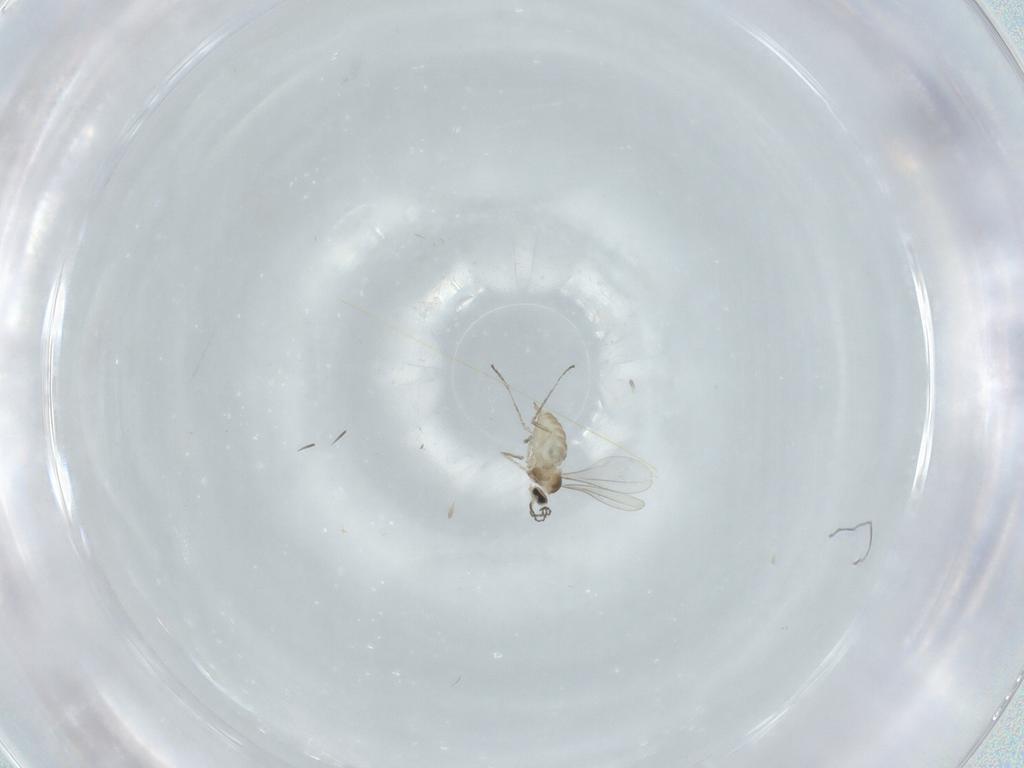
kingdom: Animalia
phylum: Arthropoda
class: Insecta
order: Diptera
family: Cecidomyiidae
